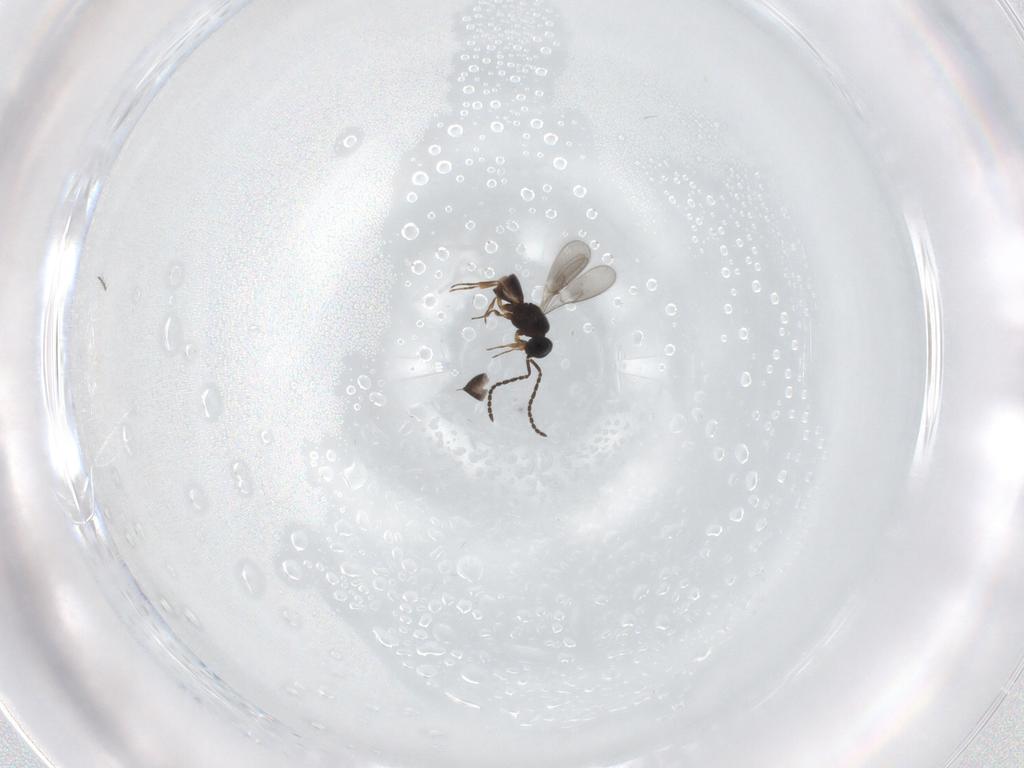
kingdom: Animalia
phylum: Arthropoda
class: Insecta
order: Hymenoptera
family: Scelionidae
